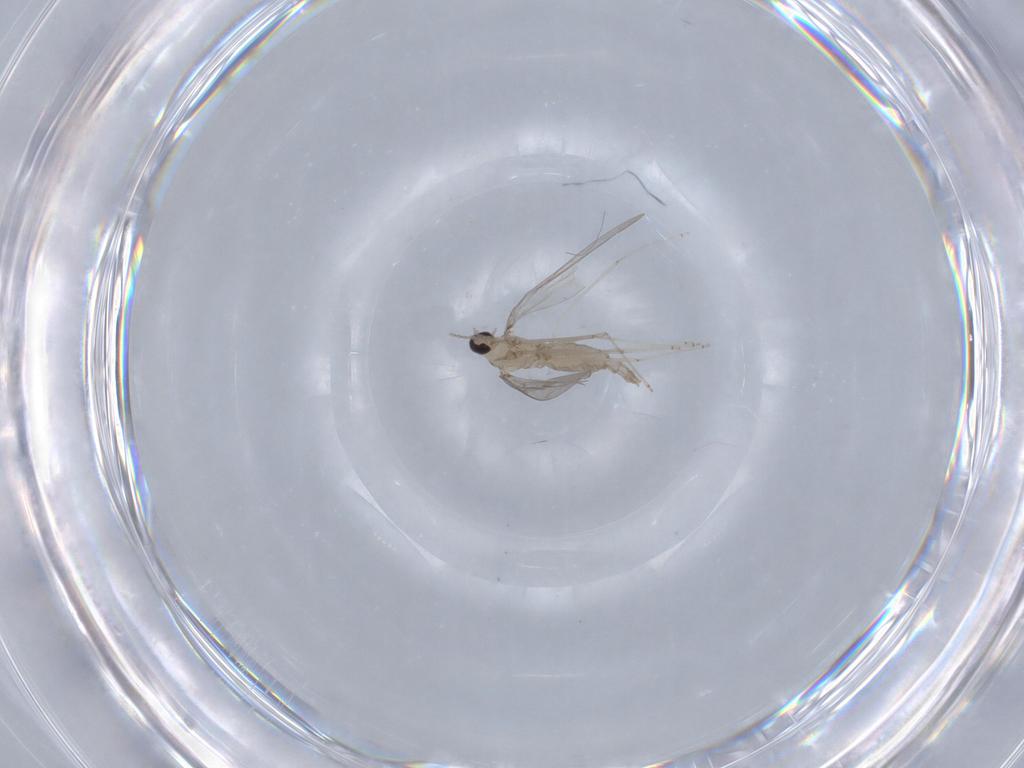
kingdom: Animalia
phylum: Arthropoda
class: Insecta
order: Diptera
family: Cecidomyiidae
